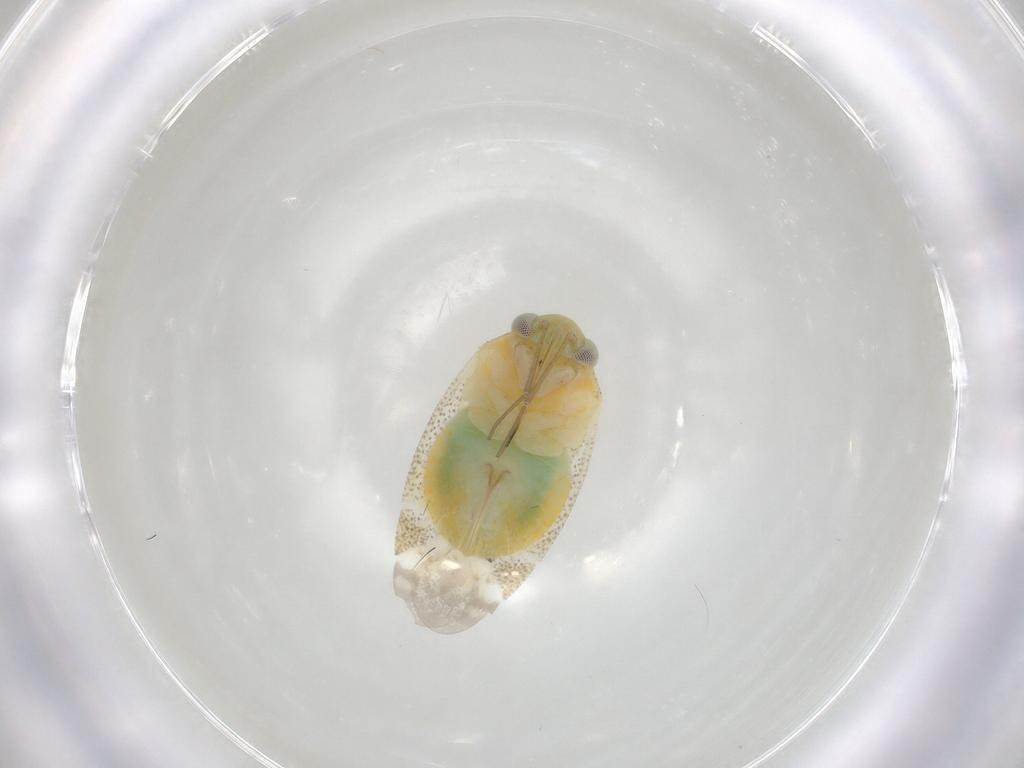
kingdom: Animalia
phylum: Arthropoda
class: Insecta
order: Hemiptera
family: Miridae
